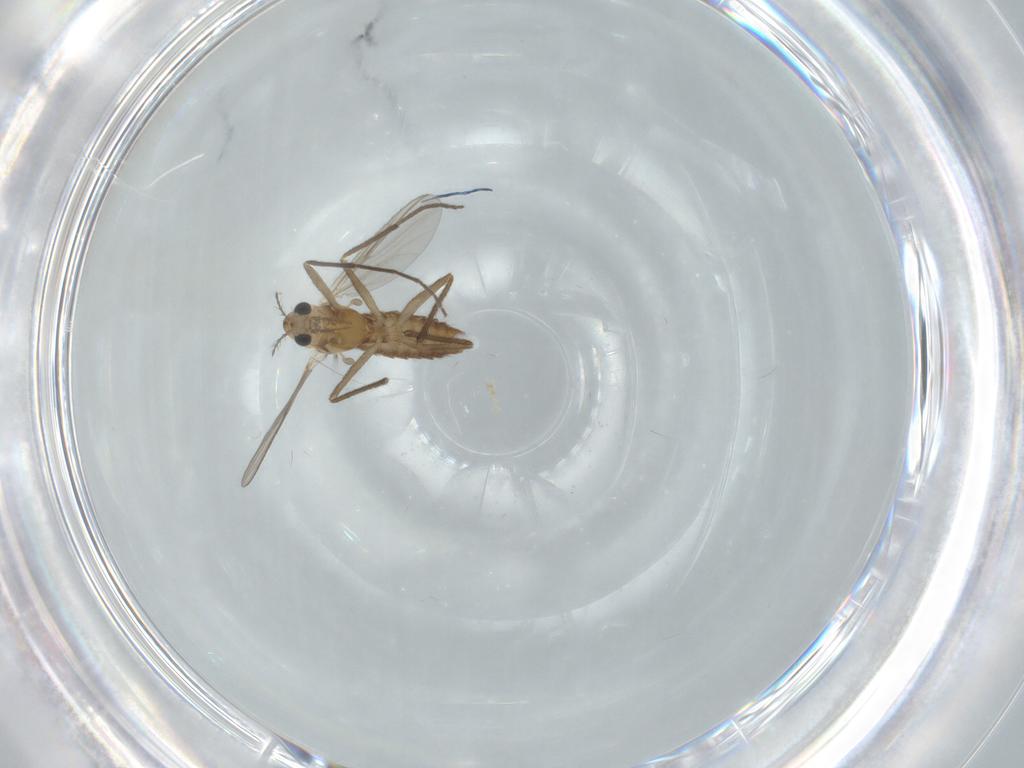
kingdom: Animalia
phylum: Arthropoda
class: Insecta
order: Diptera
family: Chironomidae
